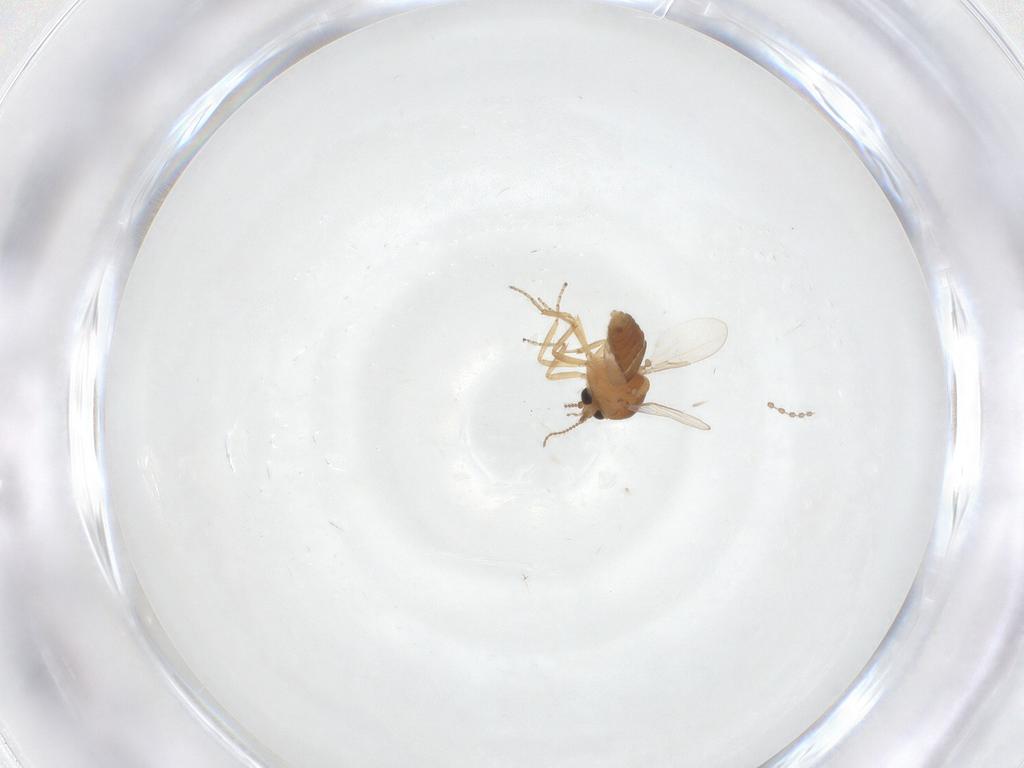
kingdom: Animalia
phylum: Arthropoda
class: Insecta
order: Diptera
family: Ceratopogonidae
